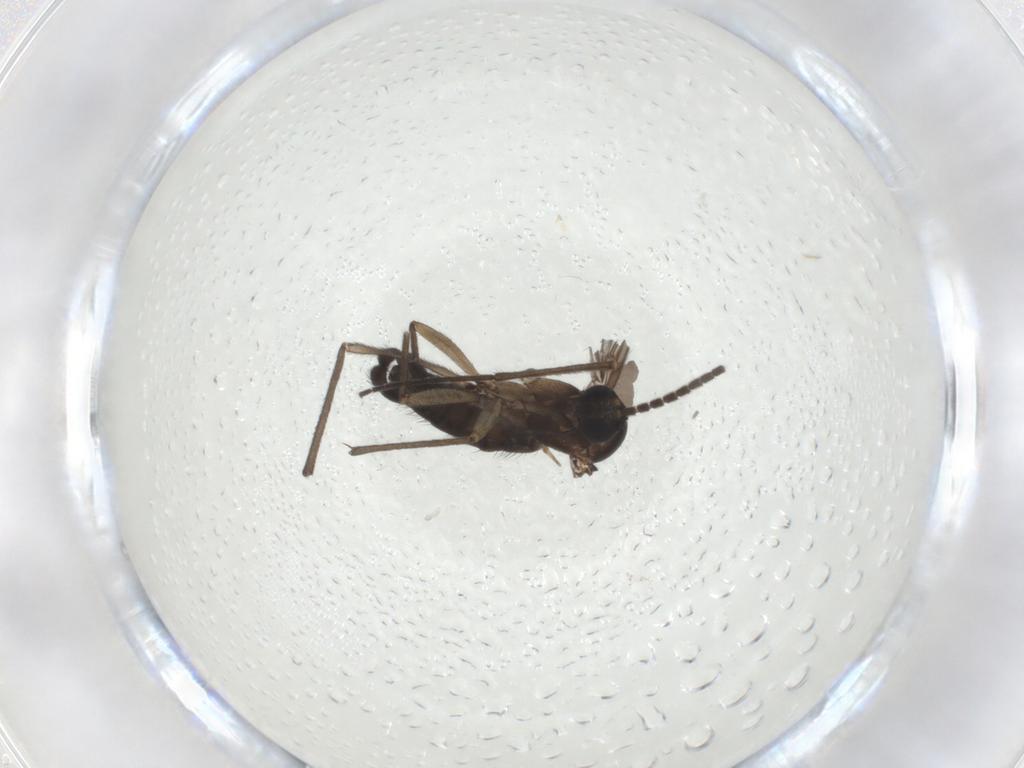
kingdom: Animalia
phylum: Arthropoda
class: Insecta
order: Diptera
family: Sciaridae
